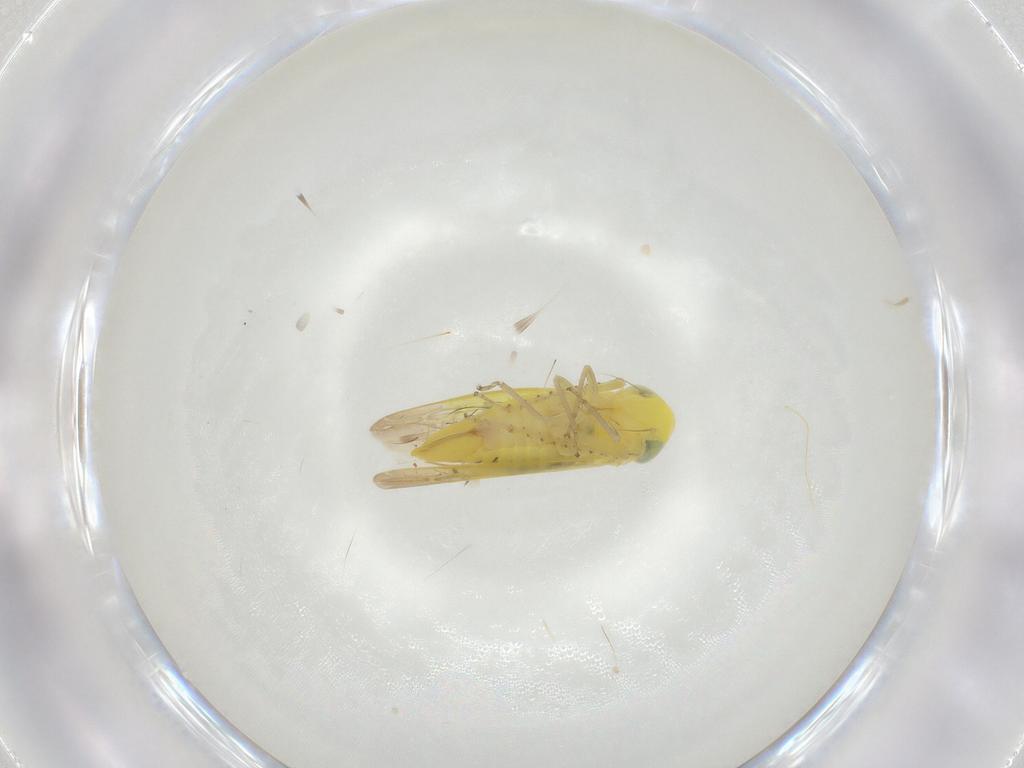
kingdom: Animalia
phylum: Arthropoda
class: Insecta
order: Hemiptera
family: Cicadellidae
